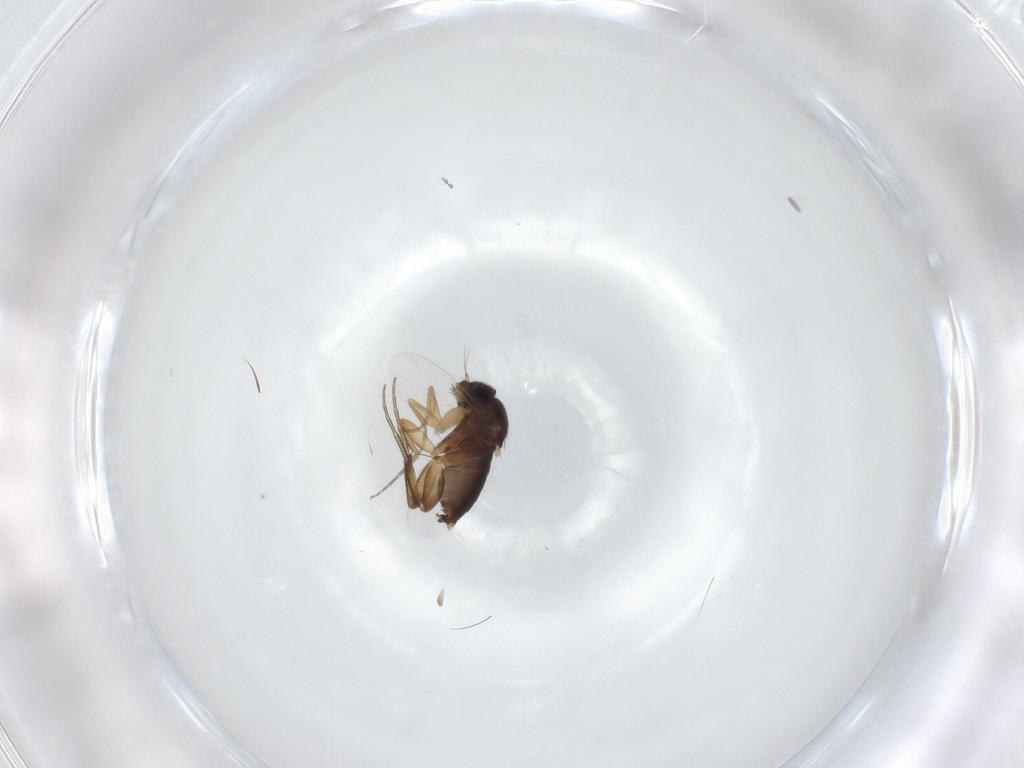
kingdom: Animalia
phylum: Arthropoda
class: Insecta
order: Diptera
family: Phoridae
